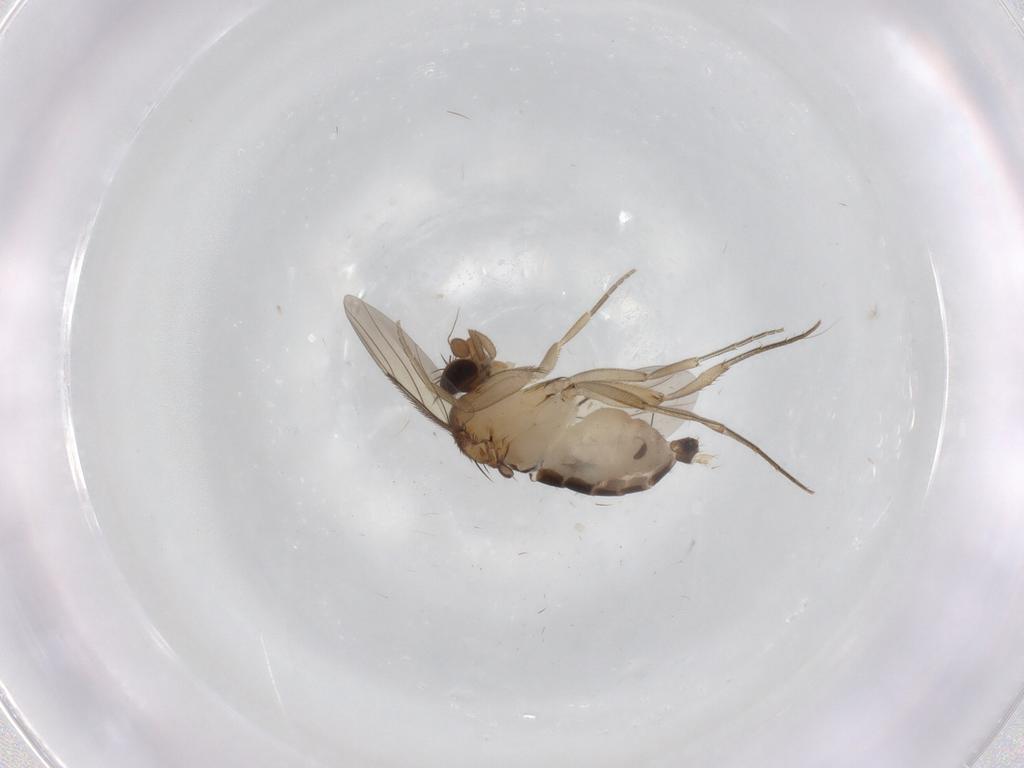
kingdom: Animalia
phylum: Arthropoda
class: Insecta
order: Diptera
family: Phoridae
